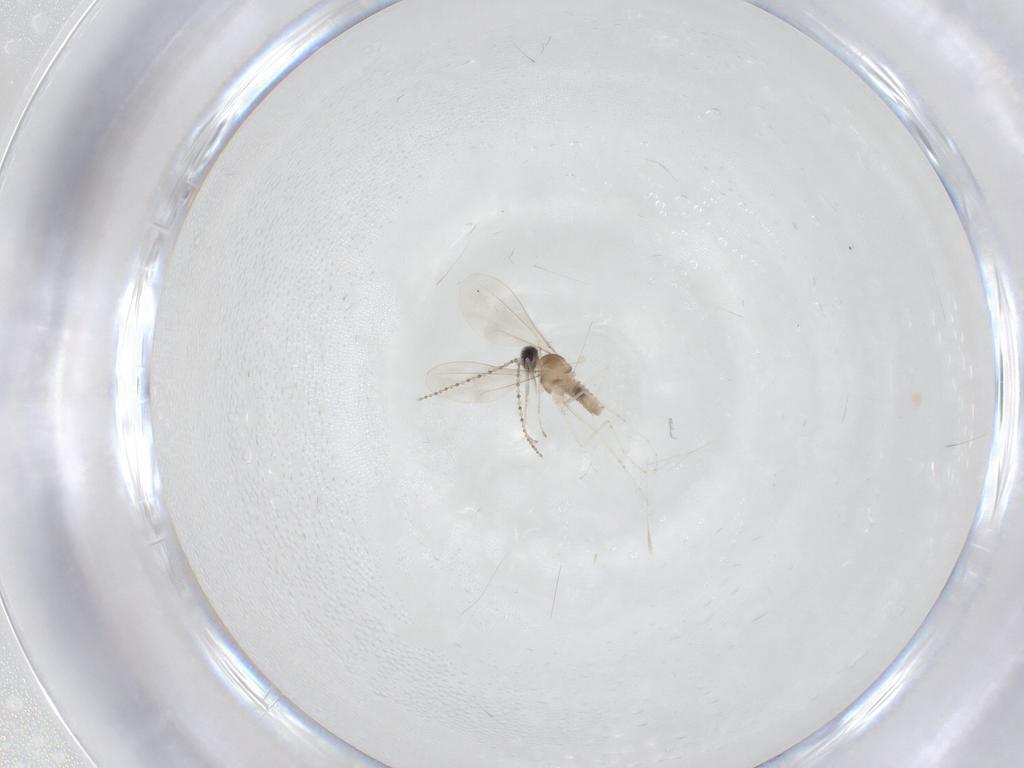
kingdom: Animalia
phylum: Arthropoda
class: Insecta
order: Diptera
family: Cecidomyiidae
